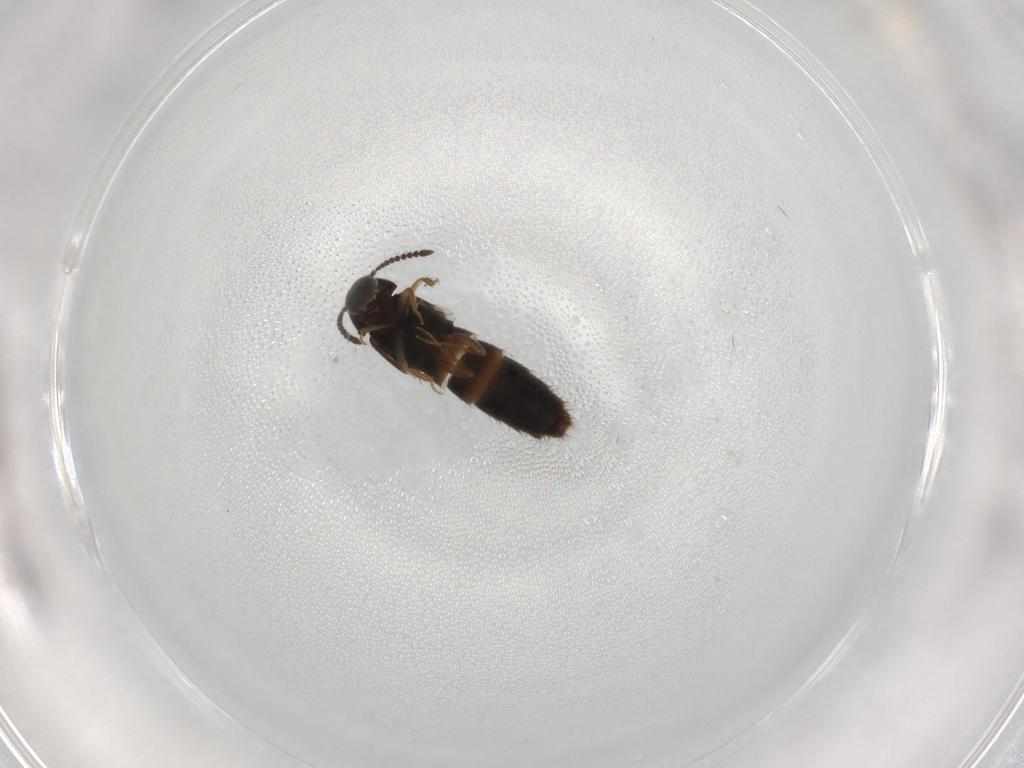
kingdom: Animalia
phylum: Arthropoda
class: Insecta
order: Coleoptera
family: Staphylinidae
